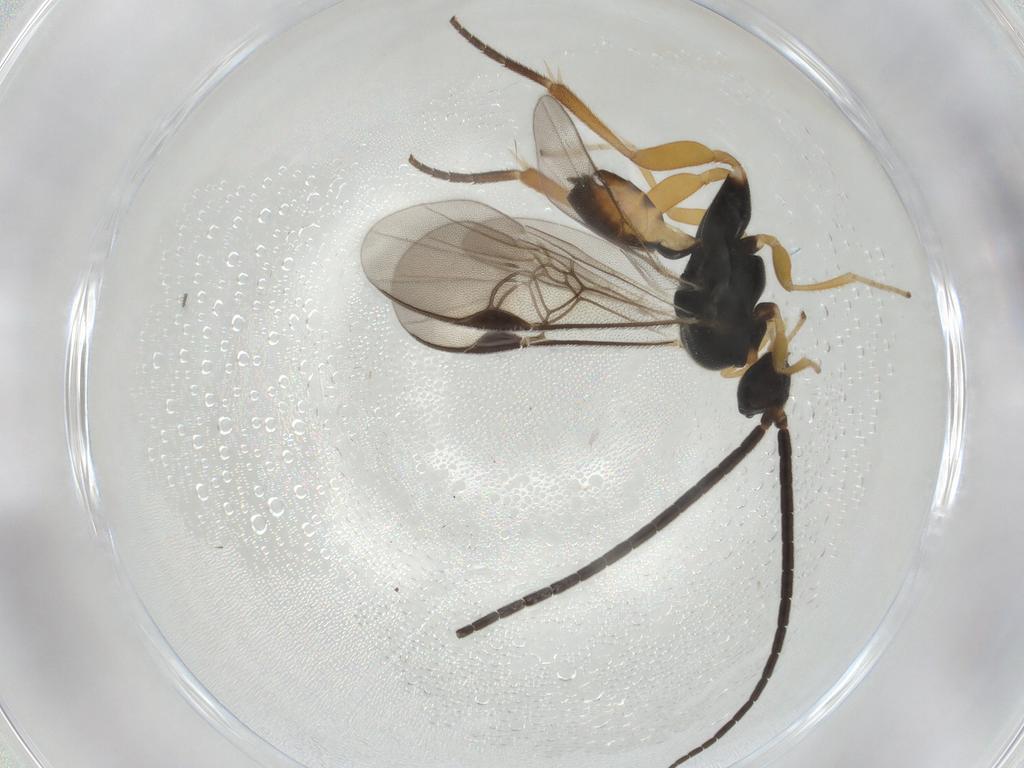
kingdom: Animalia
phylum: Arthropoda
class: Insecta
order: Hymenoptera
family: Braconidae
